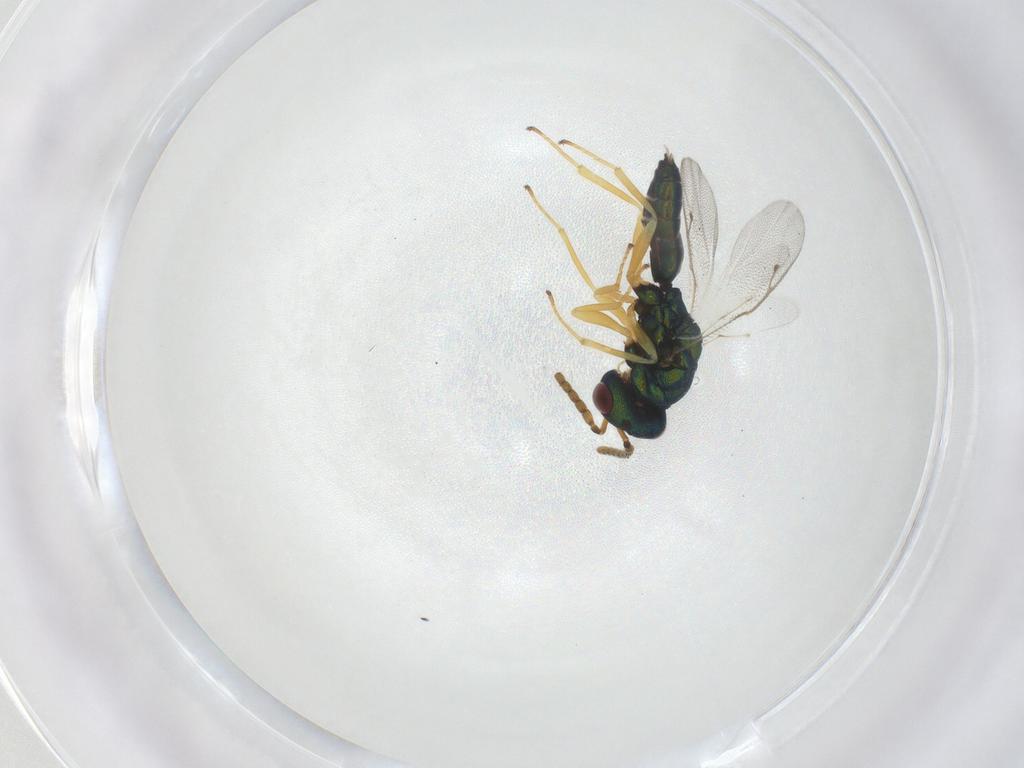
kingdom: Animalia
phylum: Arthropoda
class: Insecta
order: Hymenoptera
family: Pteromalidae
